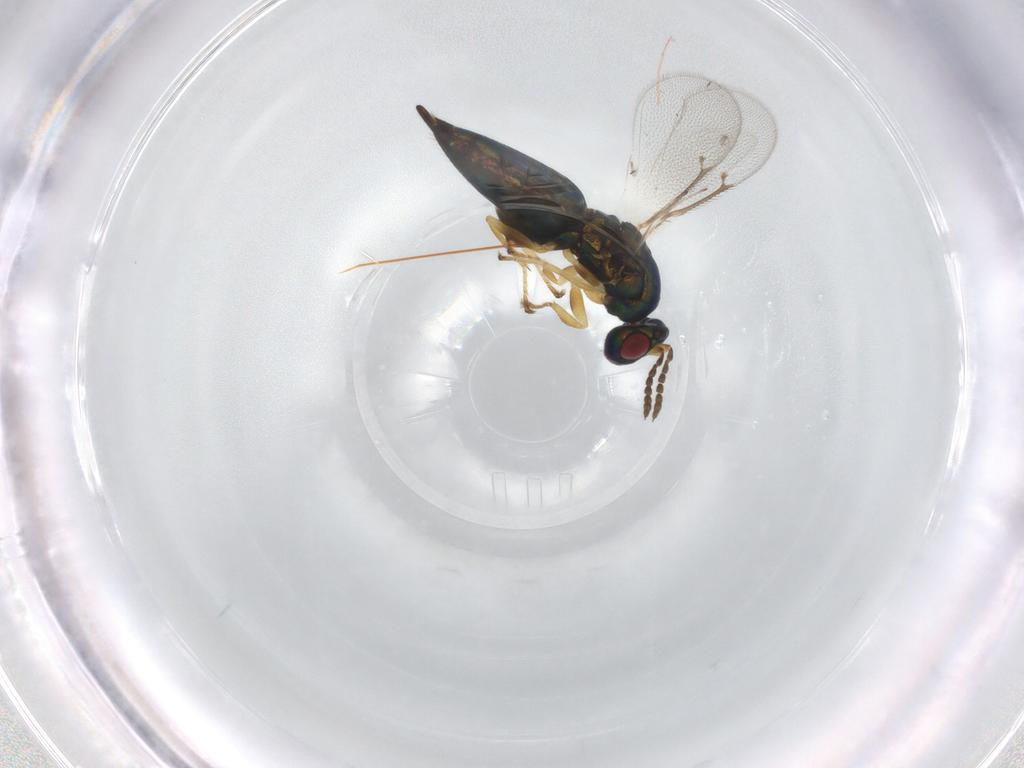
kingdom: Animalia
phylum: Arthropoda
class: Insecta
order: Hymenoptera
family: Eulophidae
